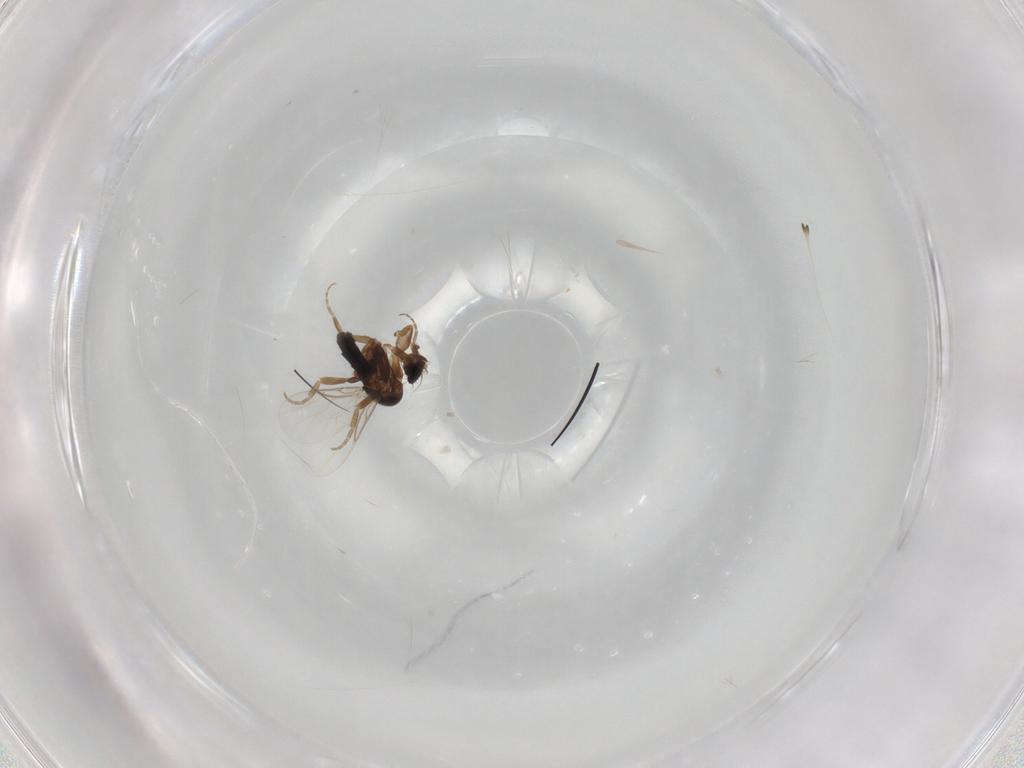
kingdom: Animalia
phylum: Arthropoda
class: Insecta
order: Diptera
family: Phoridae
